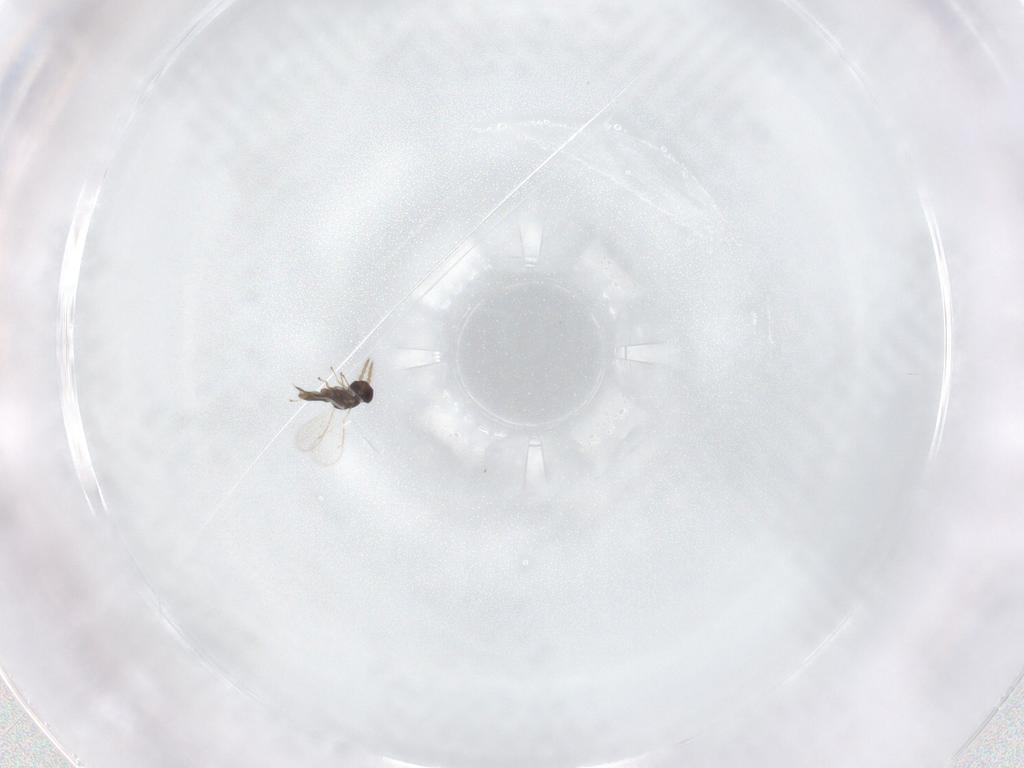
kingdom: Animalia
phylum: Arthropoda
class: Insecta
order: Hymenoptera
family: Eulophidae
